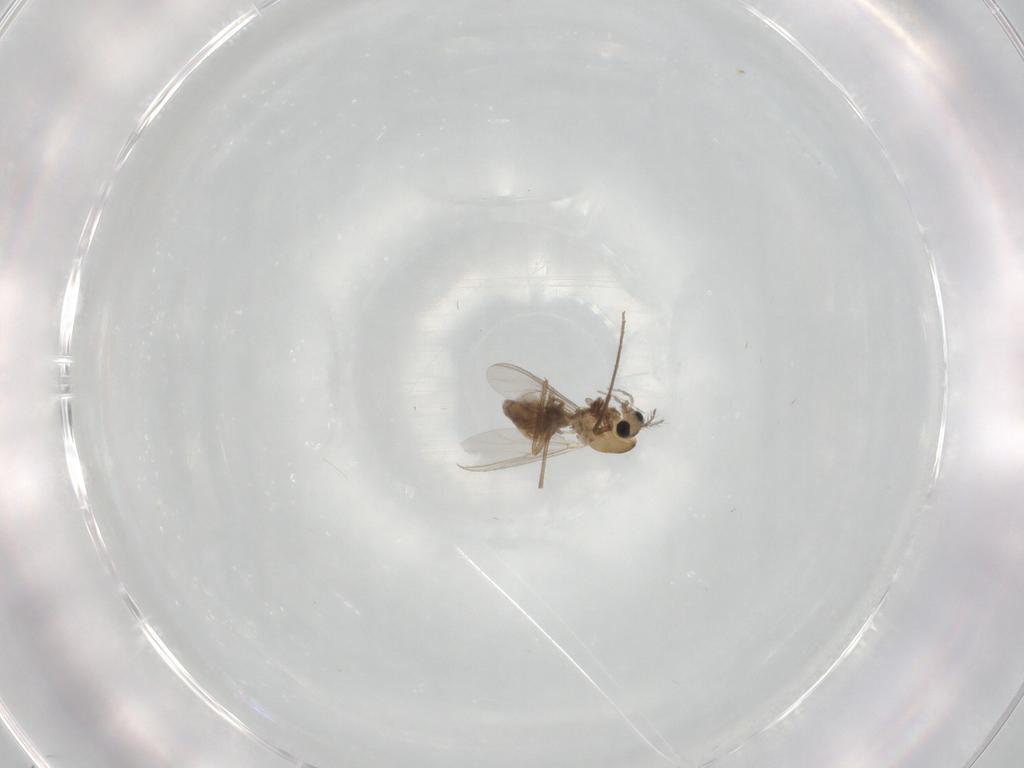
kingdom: Animalia
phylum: Arthropoda
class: Insecta
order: Diptera
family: Chironomidae
